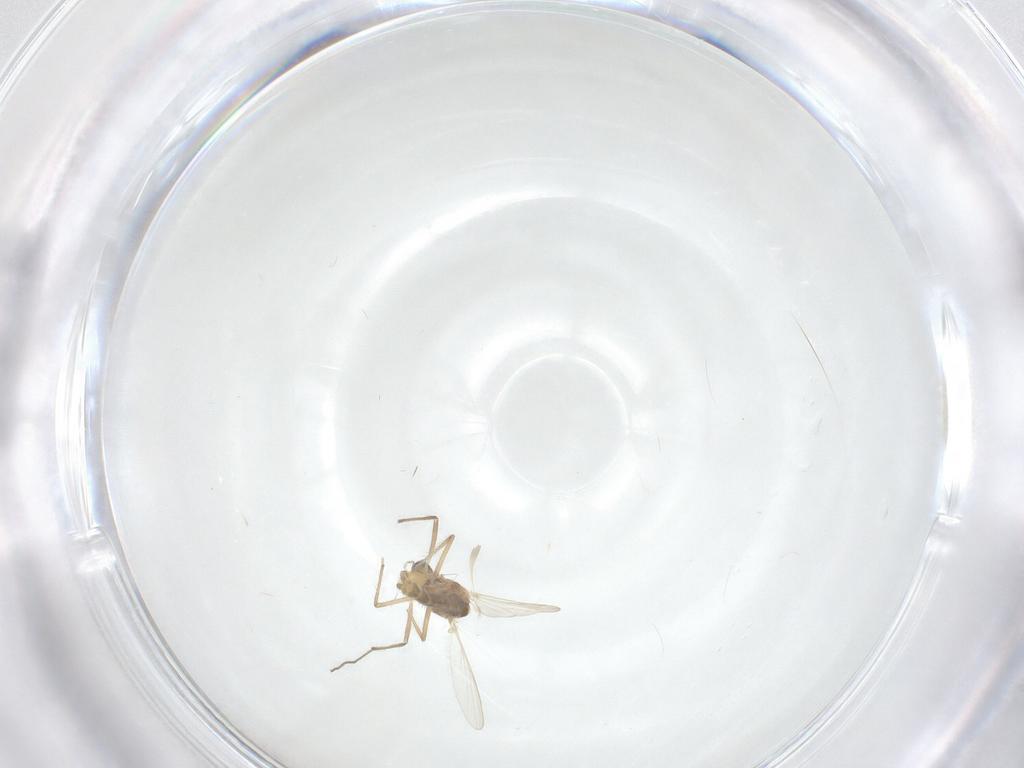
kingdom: Animalia
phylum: Arthropoda
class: Insecta
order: Diptera
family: Chironomidae
